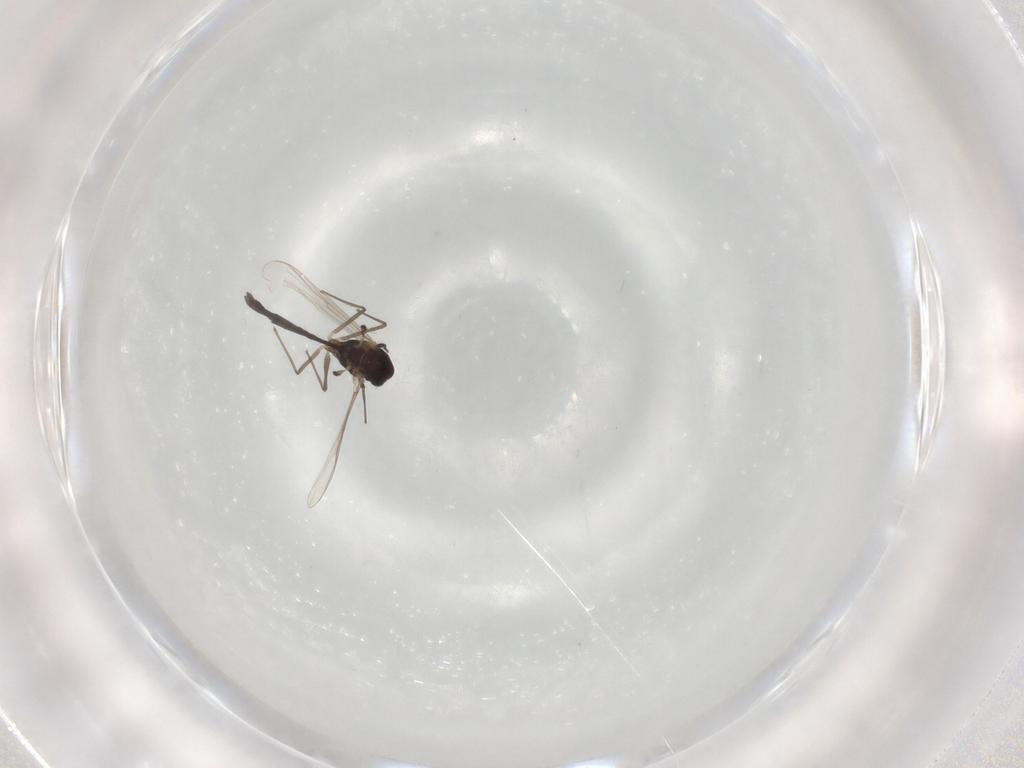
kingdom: Animalia
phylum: Arthropoda
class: Insecta
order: Diptera
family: Chironomidae
